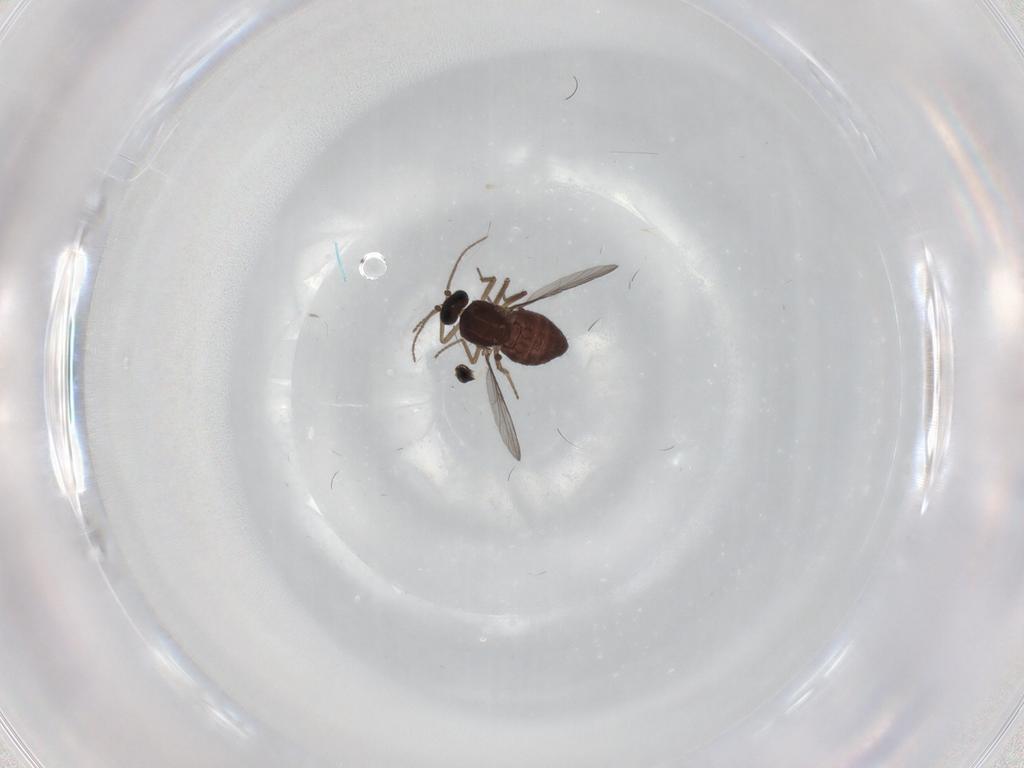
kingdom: Animalia
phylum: Arthropoda
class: Insecta
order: Diptera
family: Ceratopogonidae
